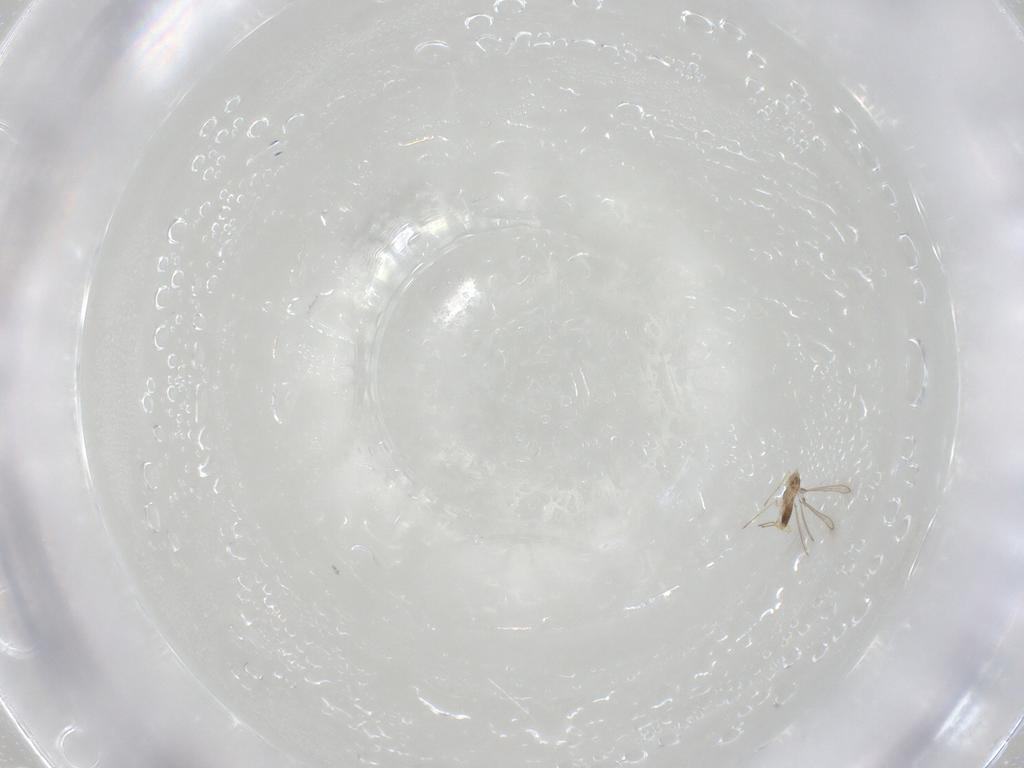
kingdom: Animalia
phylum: Arthropoda
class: Insecta
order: Hymenoptera
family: Mymaridae
